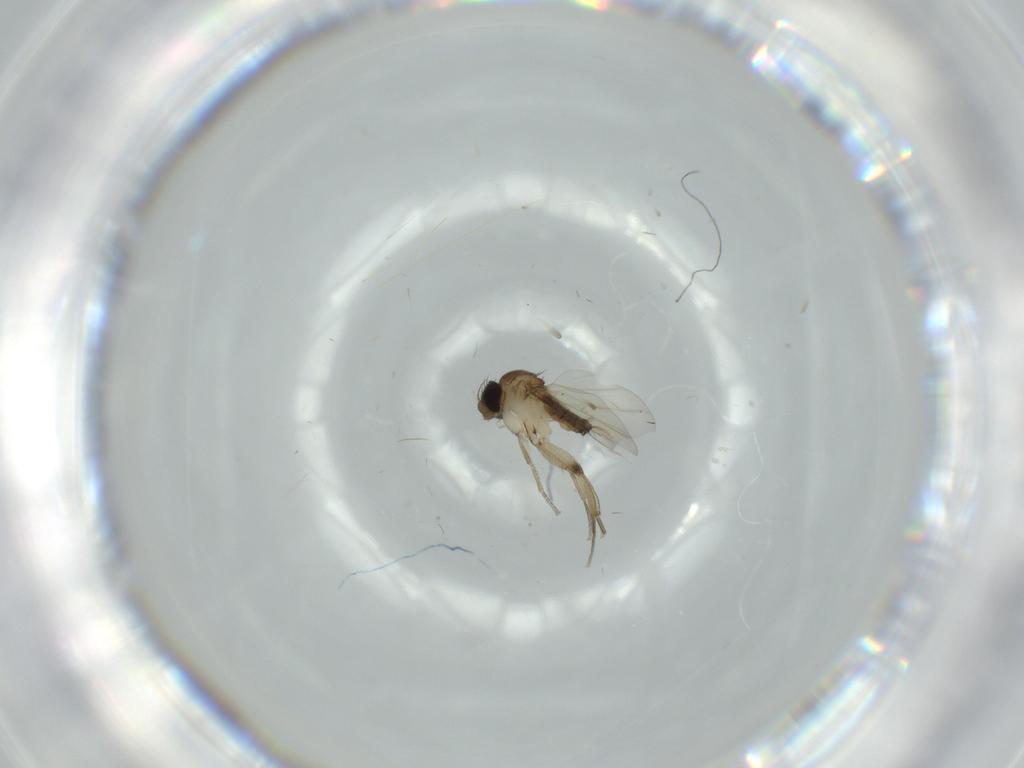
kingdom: Animalia
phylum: Arthropoda
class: Insecta
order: Diptera
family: Phoridae
